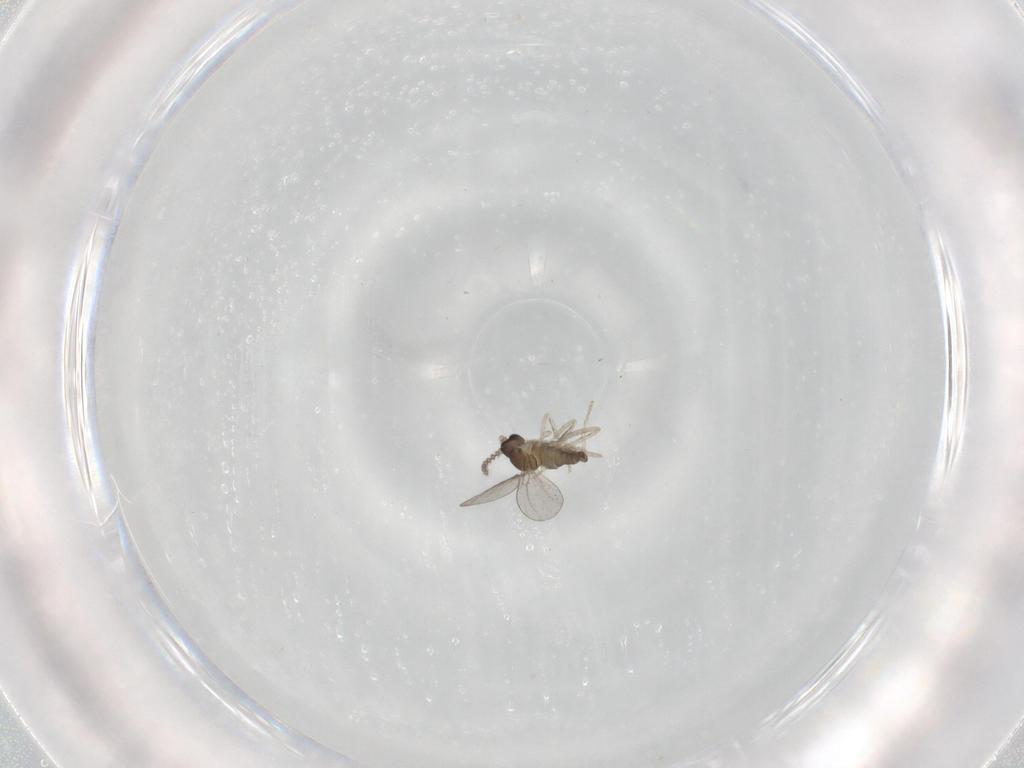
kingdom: Animalia
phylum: Arthropoda
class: Insecta
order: Diptera
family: Cecidomyiidae
